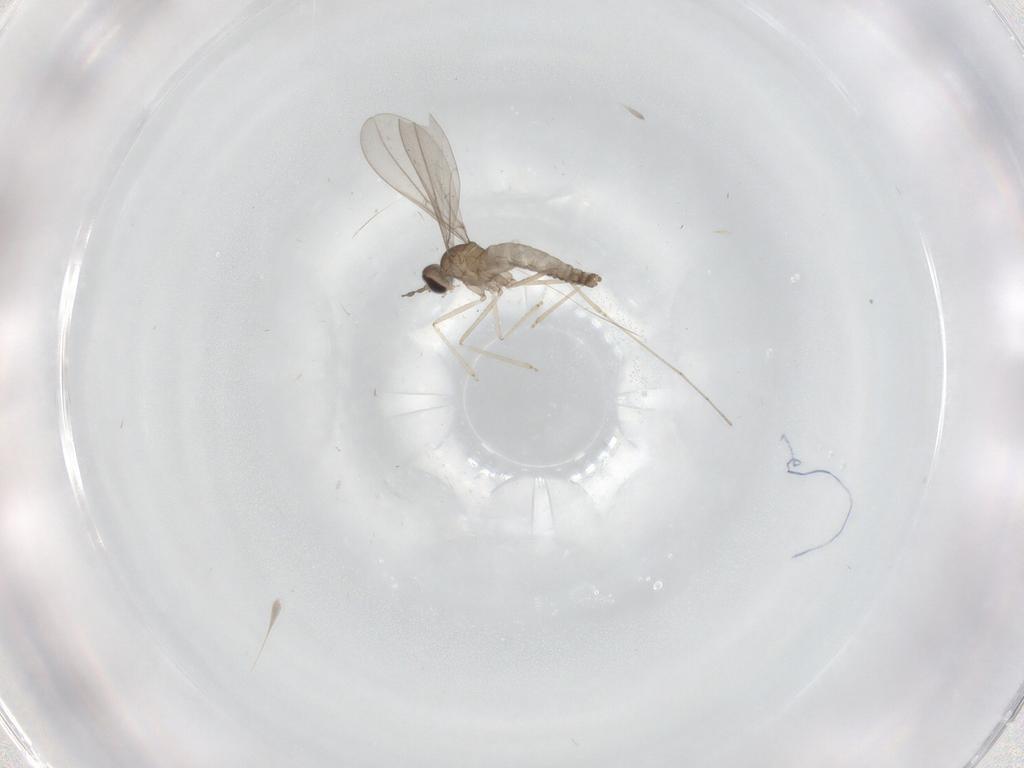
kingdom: Animalia
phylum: Arthropoda
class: Insecta
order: Diptera
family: Cecidomyiidae
